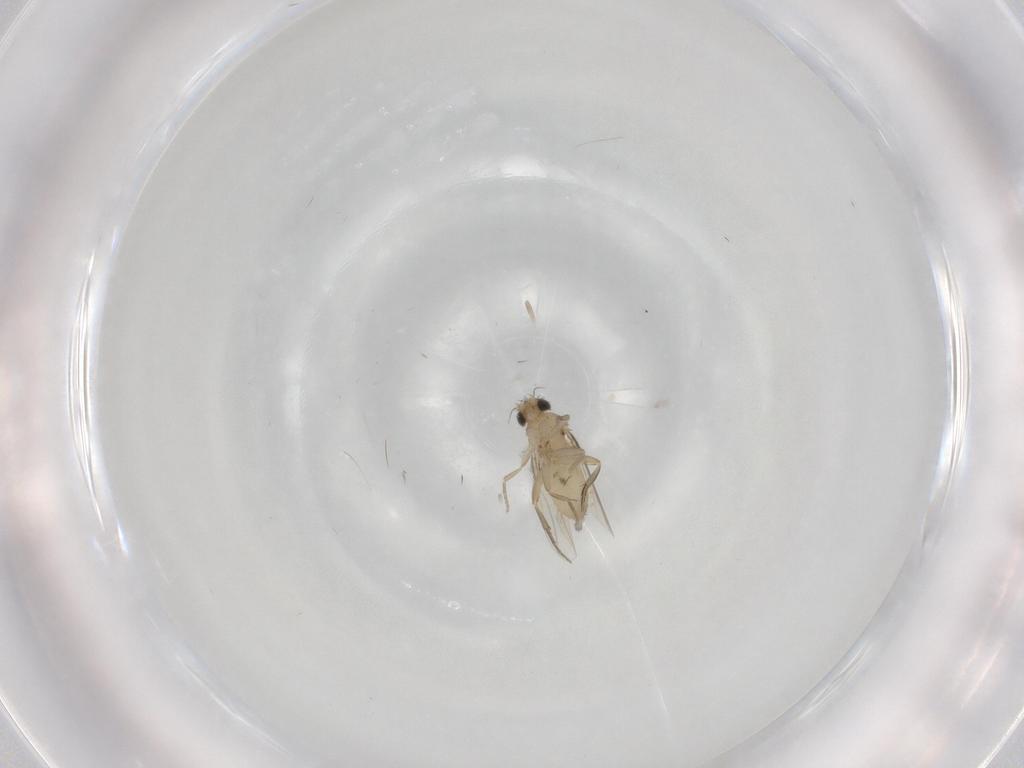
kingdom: Animalia
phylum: Arthropoda
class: Insecta
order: Diptera
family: Phoridae
